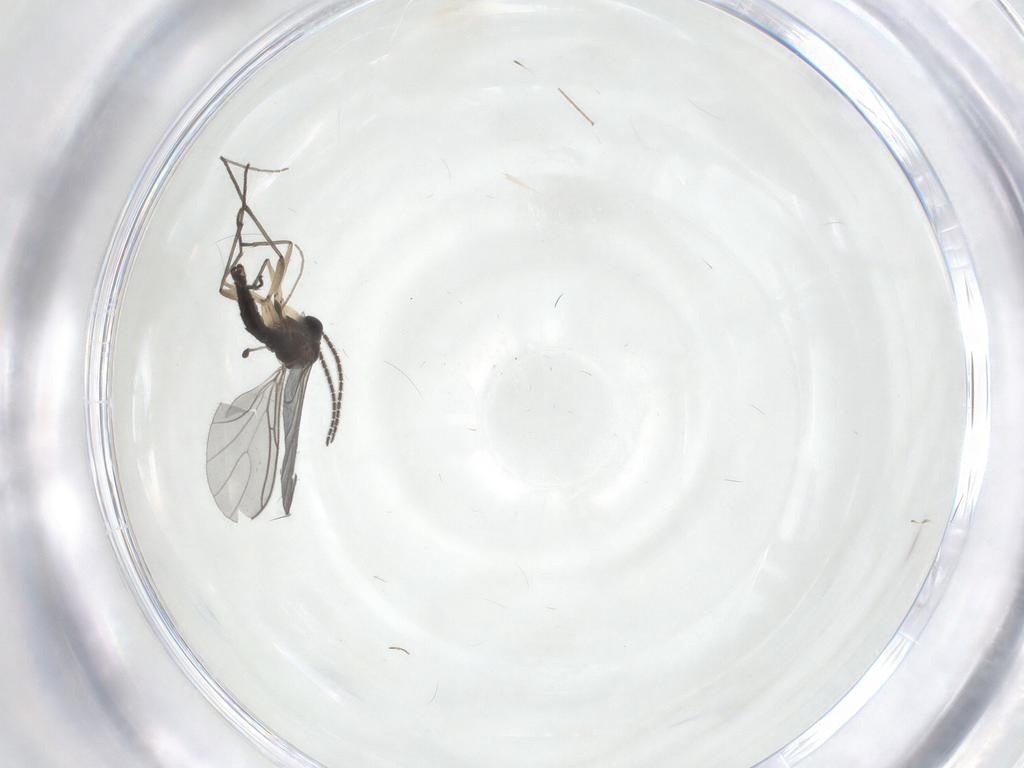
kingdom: Animalia
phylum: Arthropoda
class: Insecta
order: Diptera
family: Sciaridae
